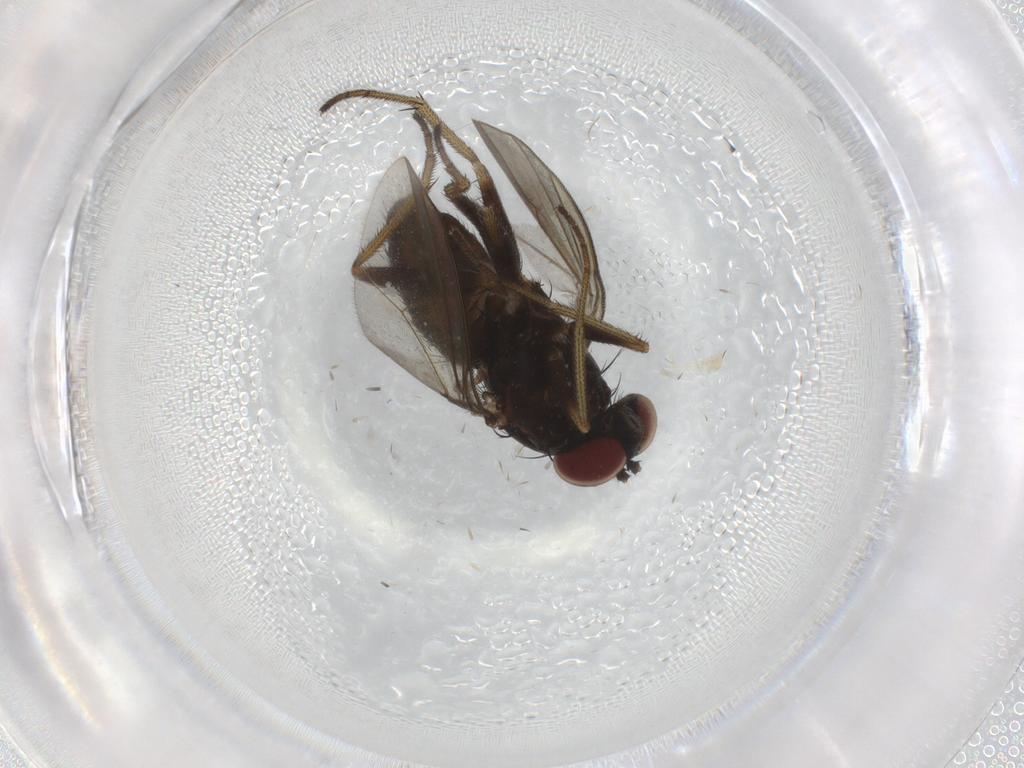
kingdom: Animalia
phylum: Arthropoda
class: Insecta
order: Diptera
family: Dolichopodidae
